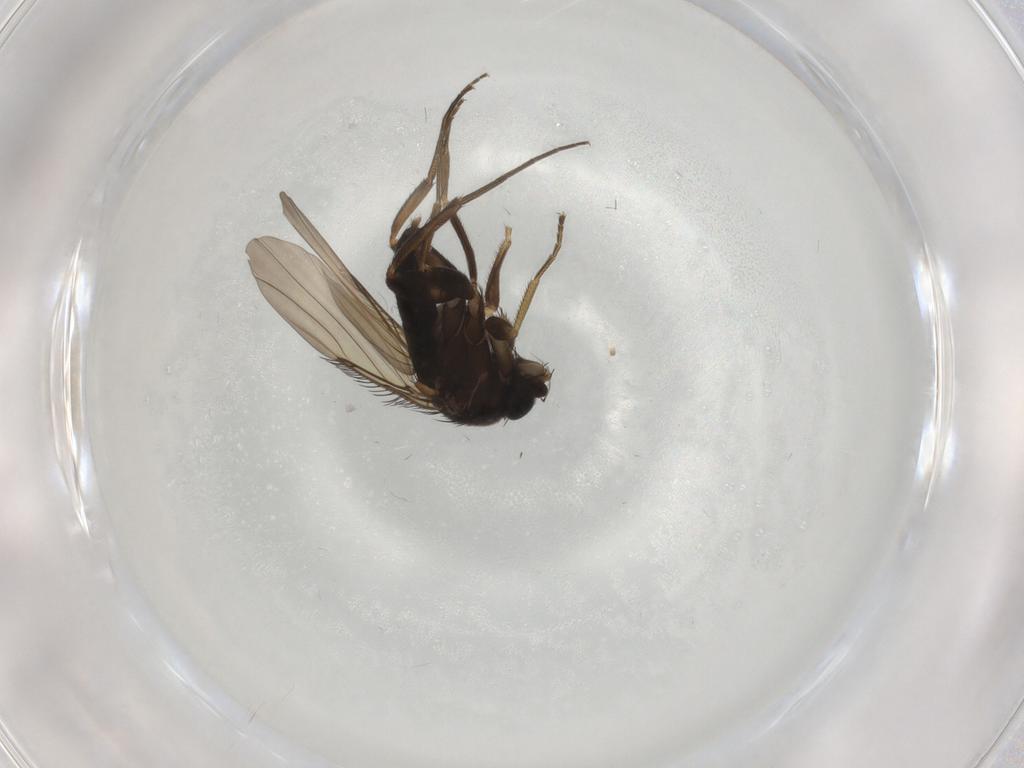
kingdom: Animalia
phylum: Arthropoda
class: Insecta
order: Diptera
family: Phoridae
